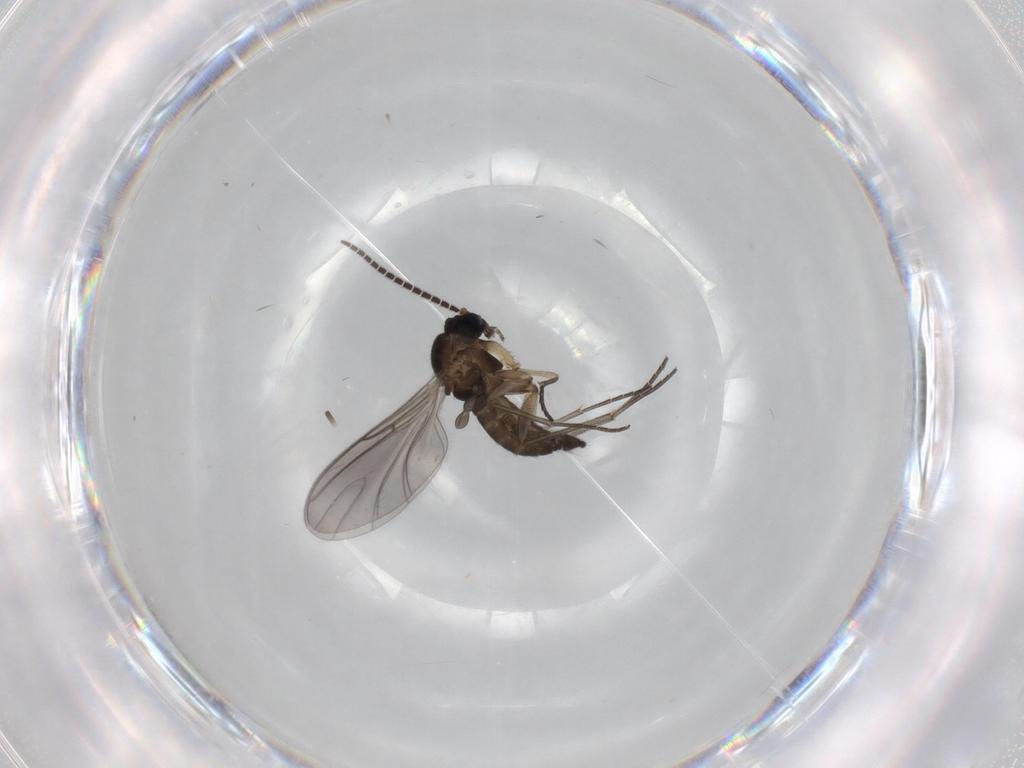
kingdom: Animalia
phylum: Arthropoda
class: Insecta
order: Diptera
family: Sciaridae
